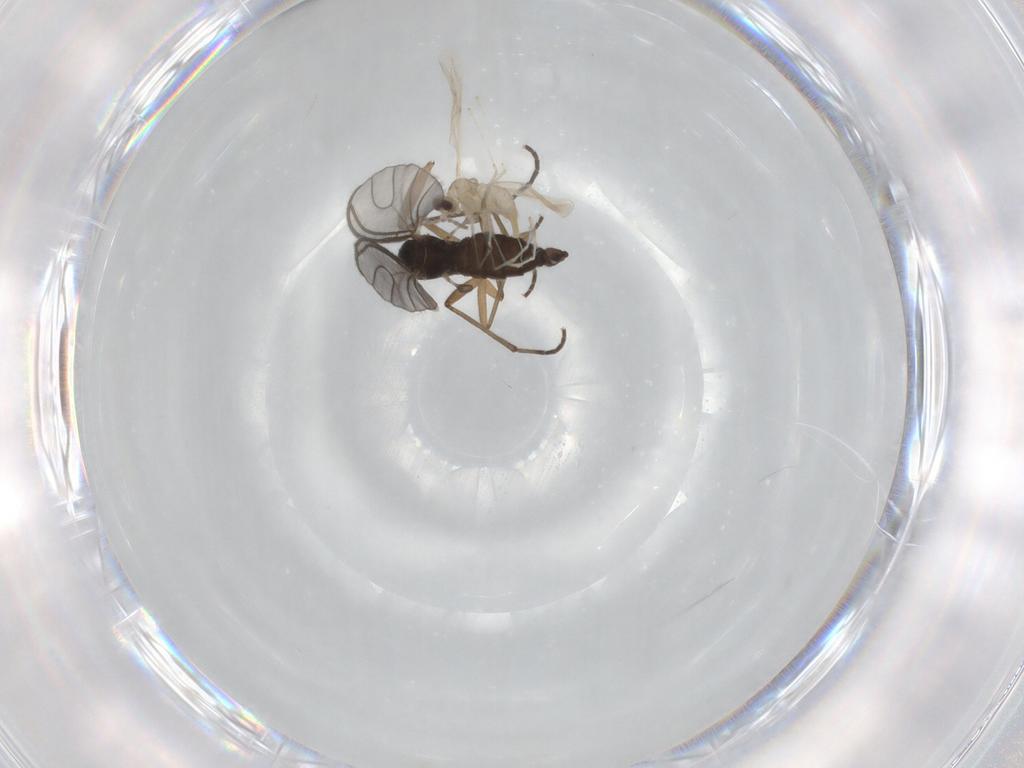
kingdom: Animalia
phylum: Arthropoda
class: Insecta
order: Diptera
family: Sciaridae
